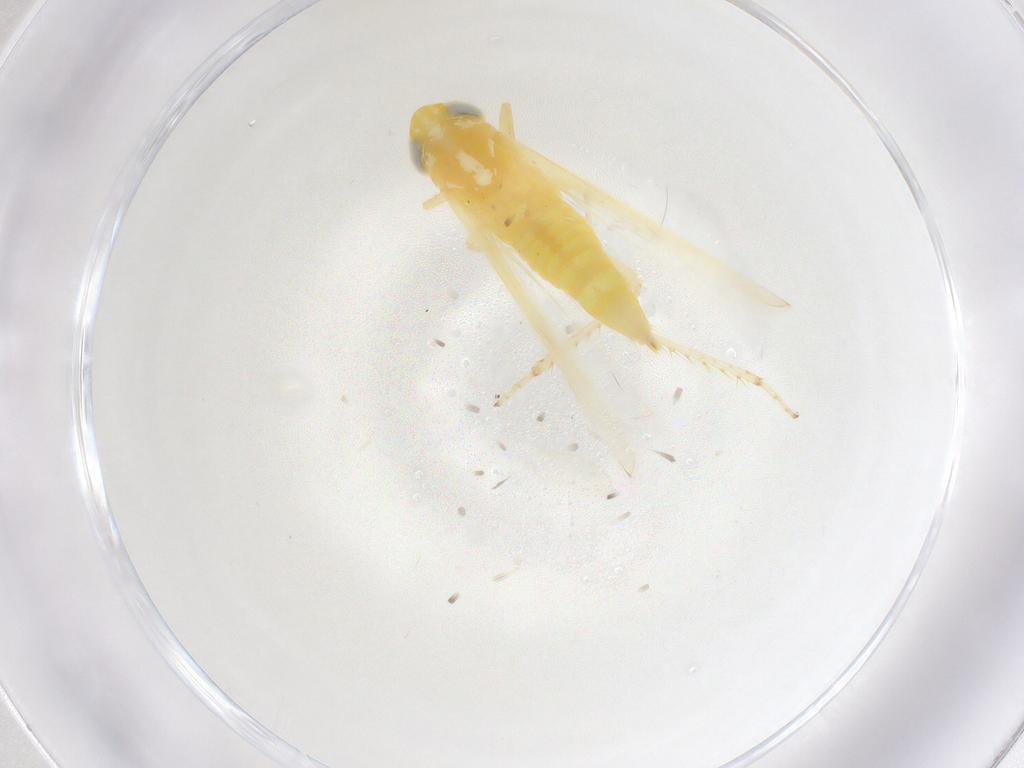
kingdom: Animalia
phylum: Arthropoda
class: Insecta
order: Hemiptera
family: Cicadellidae
